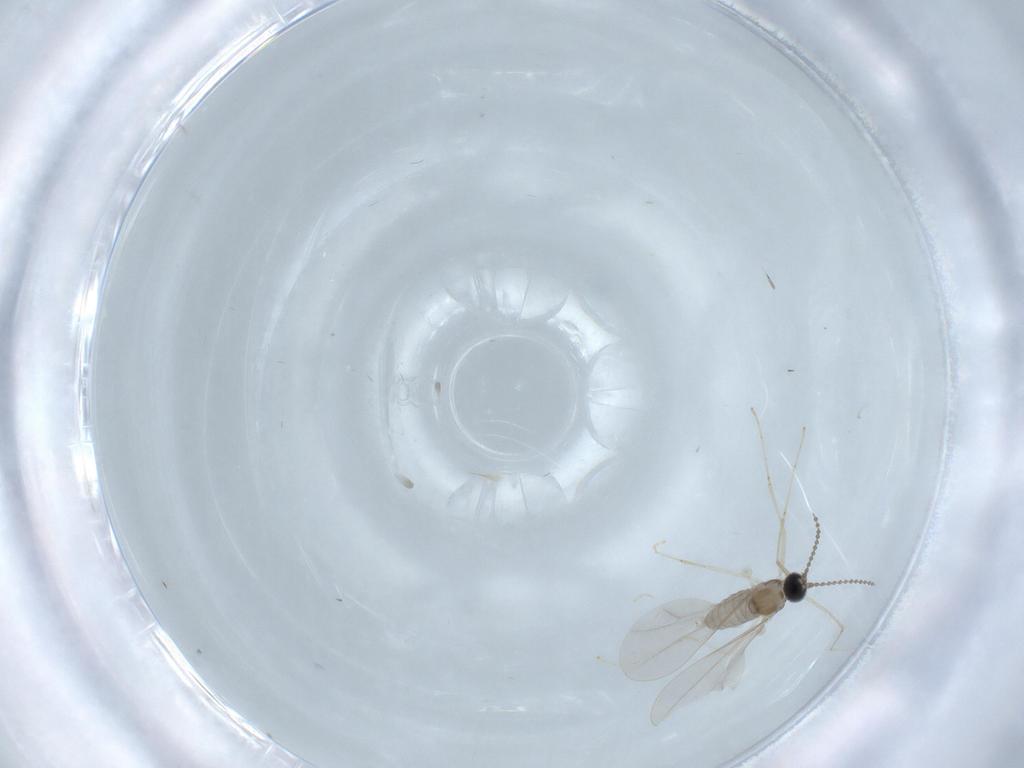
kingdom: Animalia
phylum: Arthropoda
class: Insecta
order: Diptera
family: Cecidomyiidae
